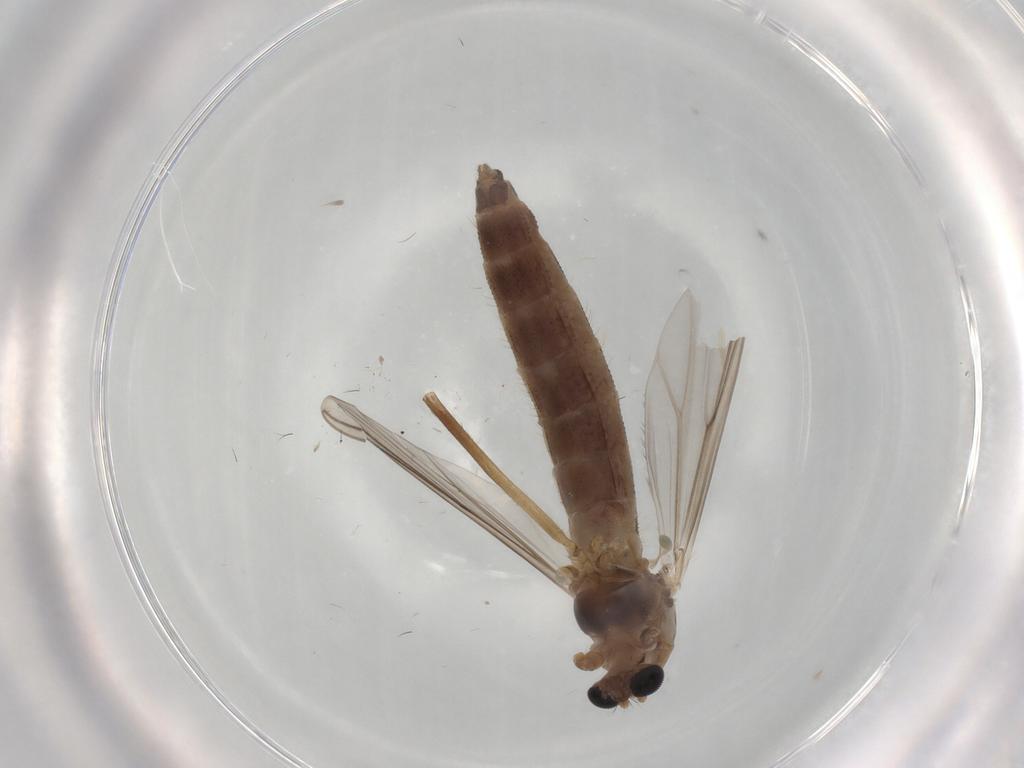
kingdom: Animalia
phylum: Arthropoda
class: Insecta
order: Diptera
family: Chironomidae
